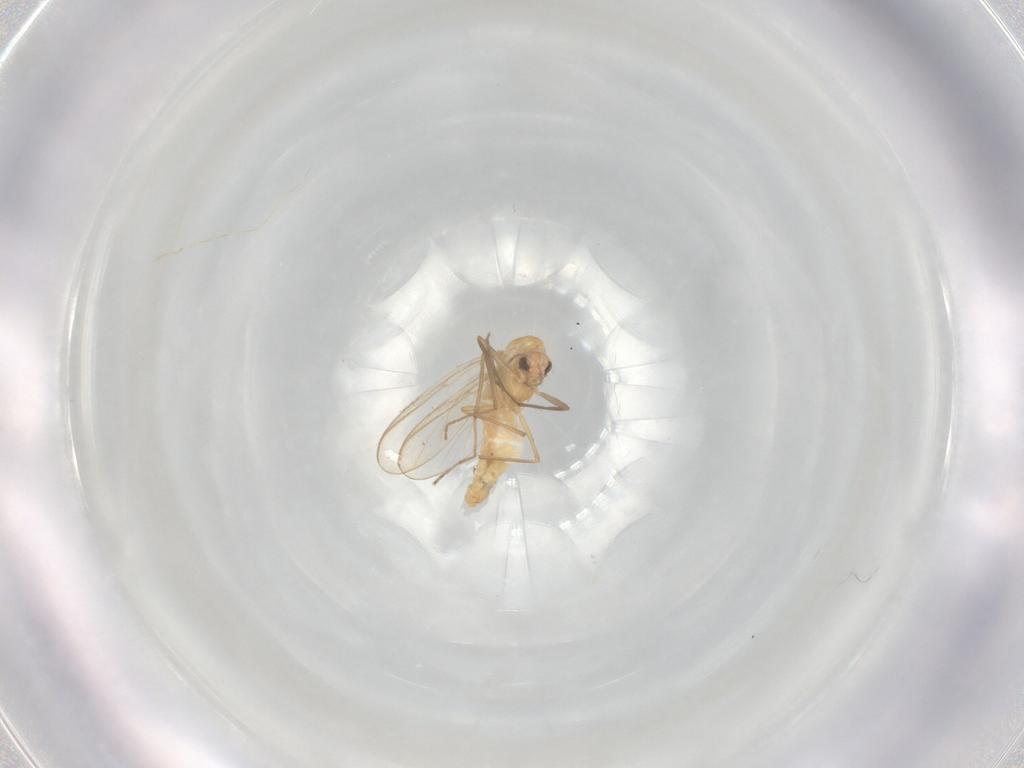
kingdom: Animalia
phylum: Arthropoda
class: Insecta
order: Diptera
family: Chironomidae
